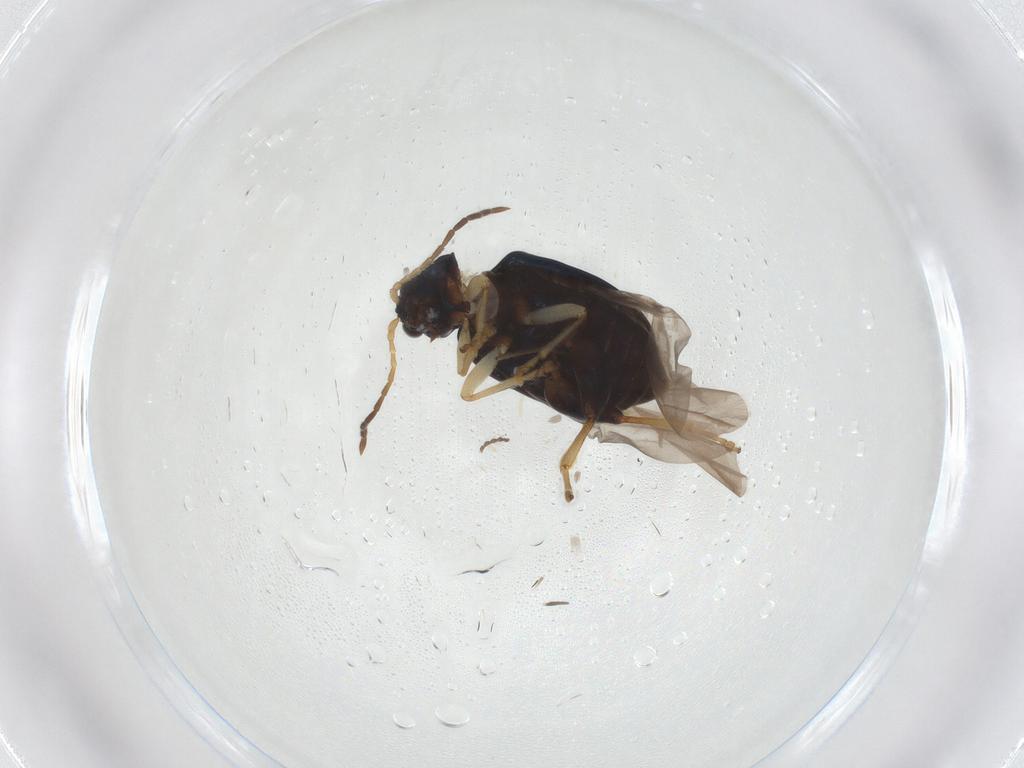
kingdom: Animalia
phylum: Arthropoda
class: Insecta
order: Coleoptera
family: Chrysomelidae
